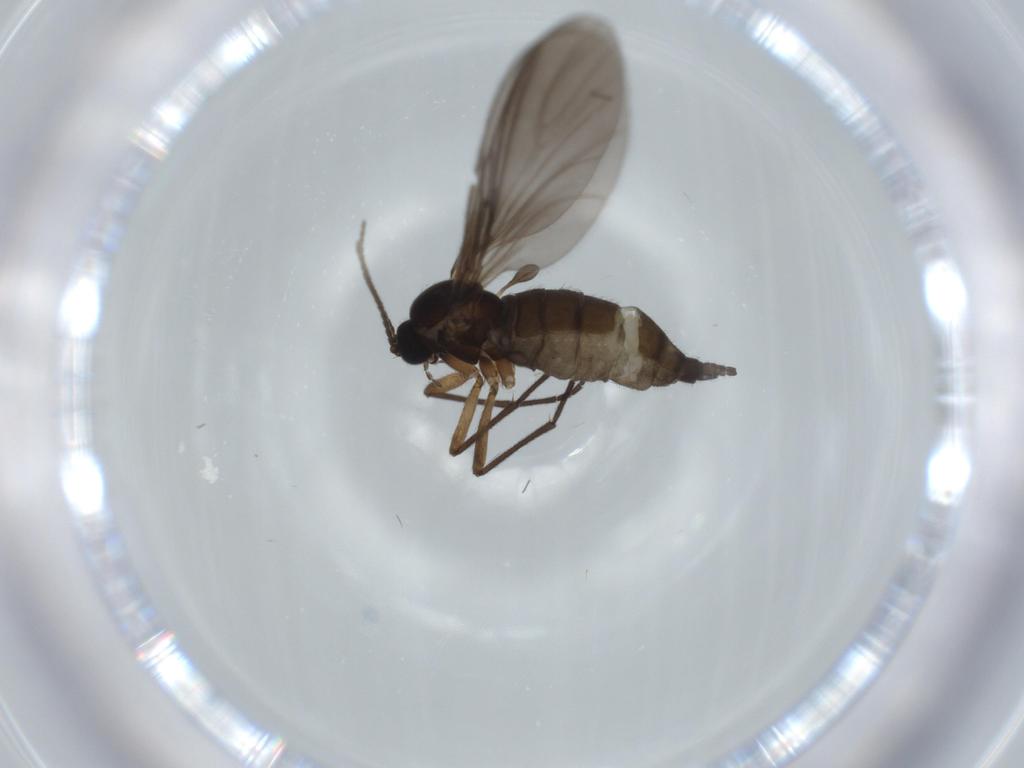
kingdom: Animalia
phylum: Arthropoda
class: Insecta
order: Diptera
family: Sciaridae
